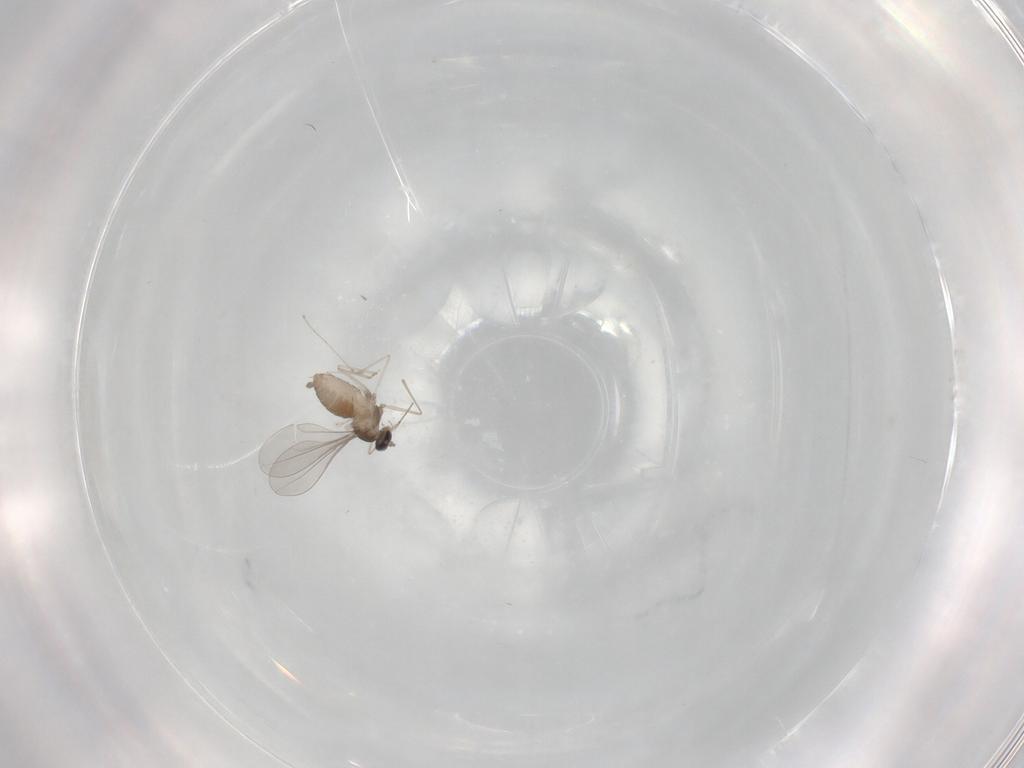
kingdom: Animalia
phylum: Arthropoda
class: Insecta
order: Diptera
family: Cecidomyiidae
